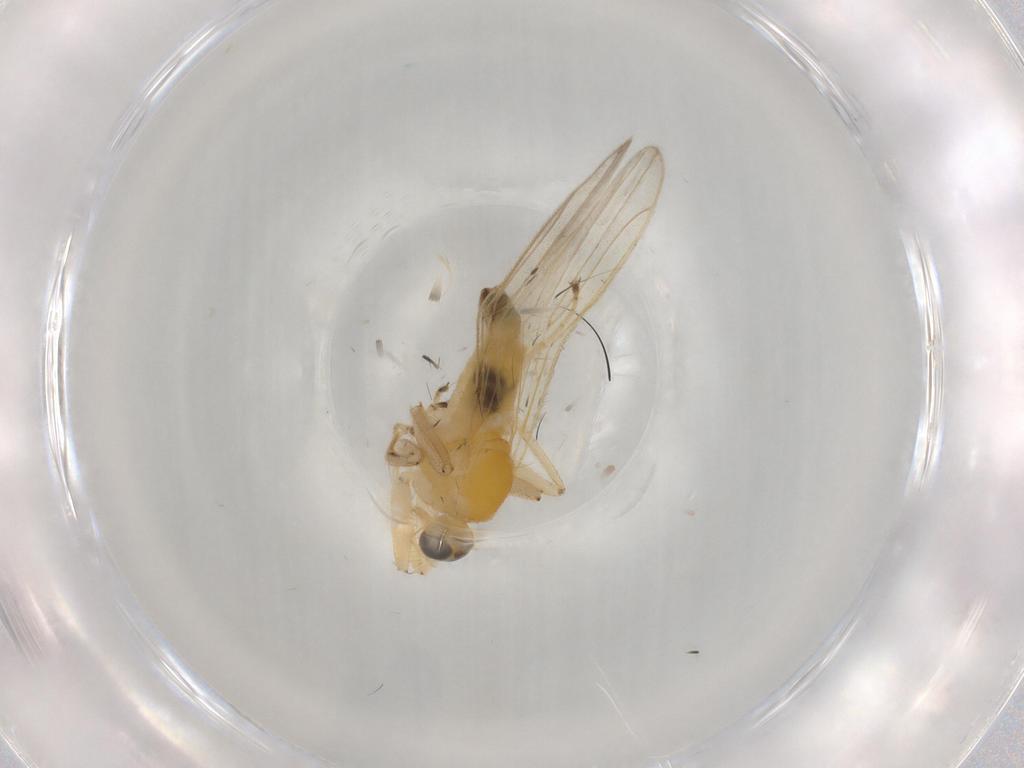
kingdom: Animalia
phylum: Arthropoda
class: Insecta
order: Diptera
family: Cecidomyiidae
